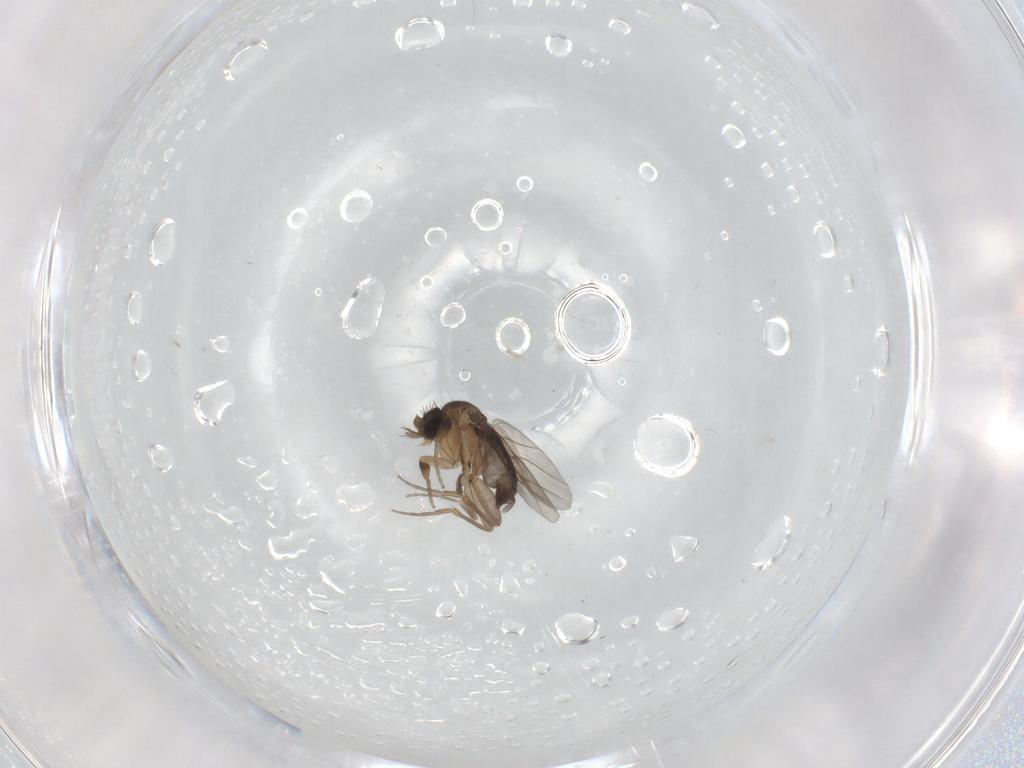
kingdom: Animalia
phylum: Arthropoda
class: Insecta
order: Diptera
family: Phoridae
